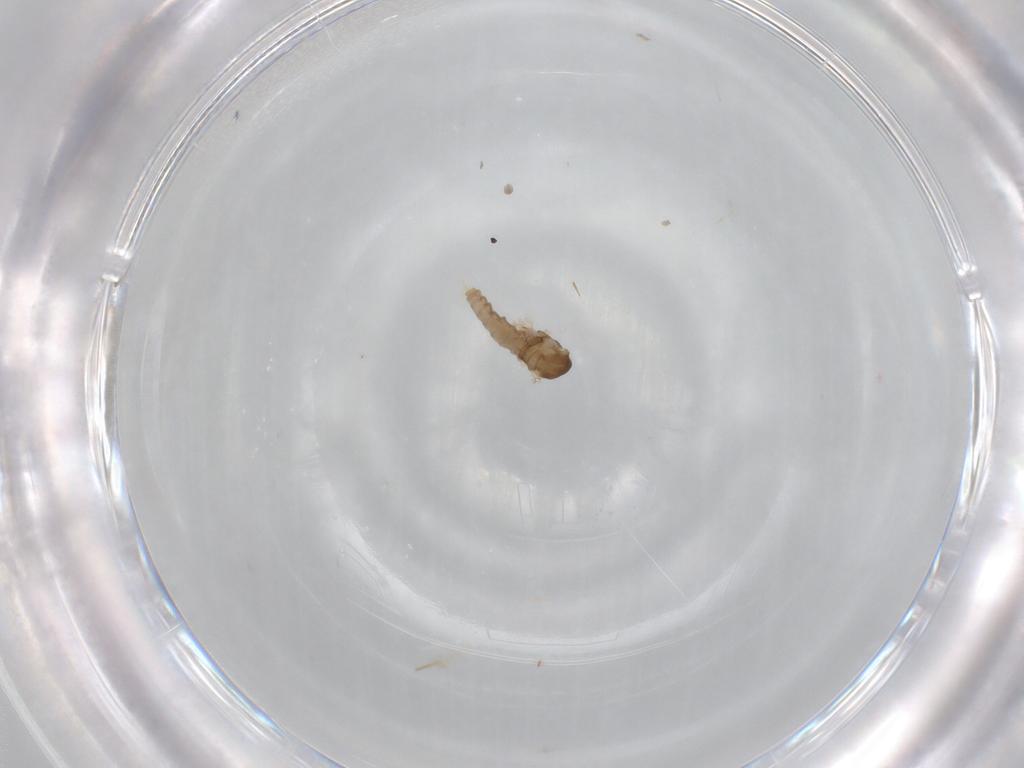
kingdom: Animalia
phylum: Arthropoda
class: Insecta
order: Diptera
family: Cecidomyiidae
